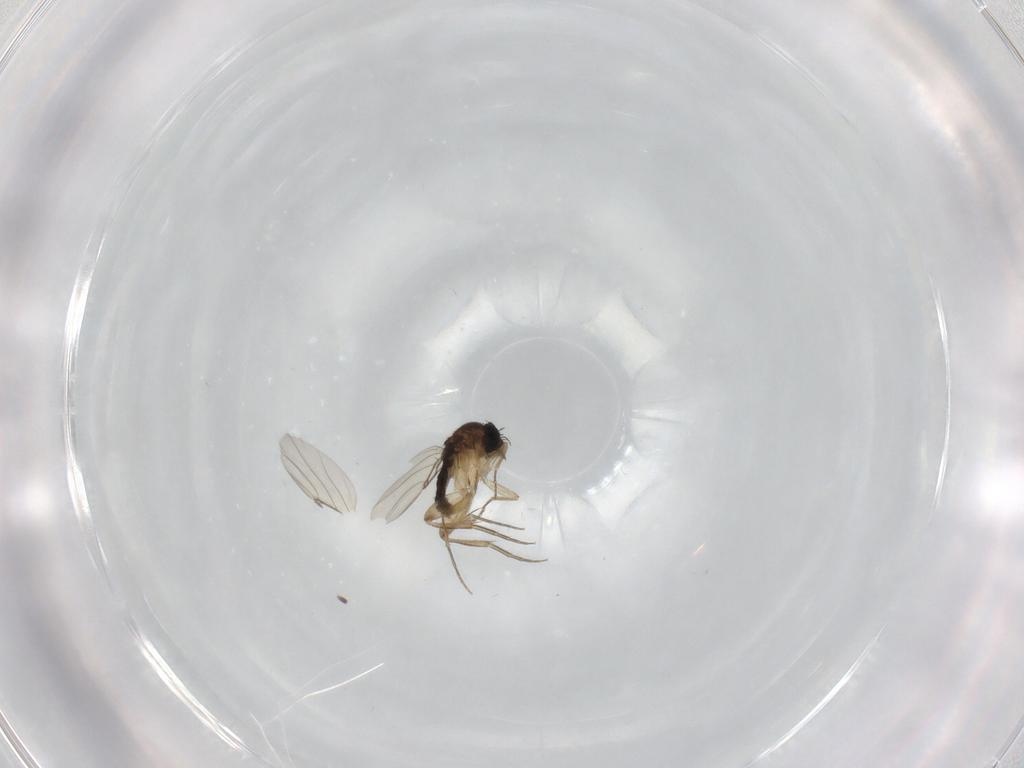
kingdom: Animalia
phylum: Arthropoda
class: Insecta
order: Diptera
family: Phoridae
